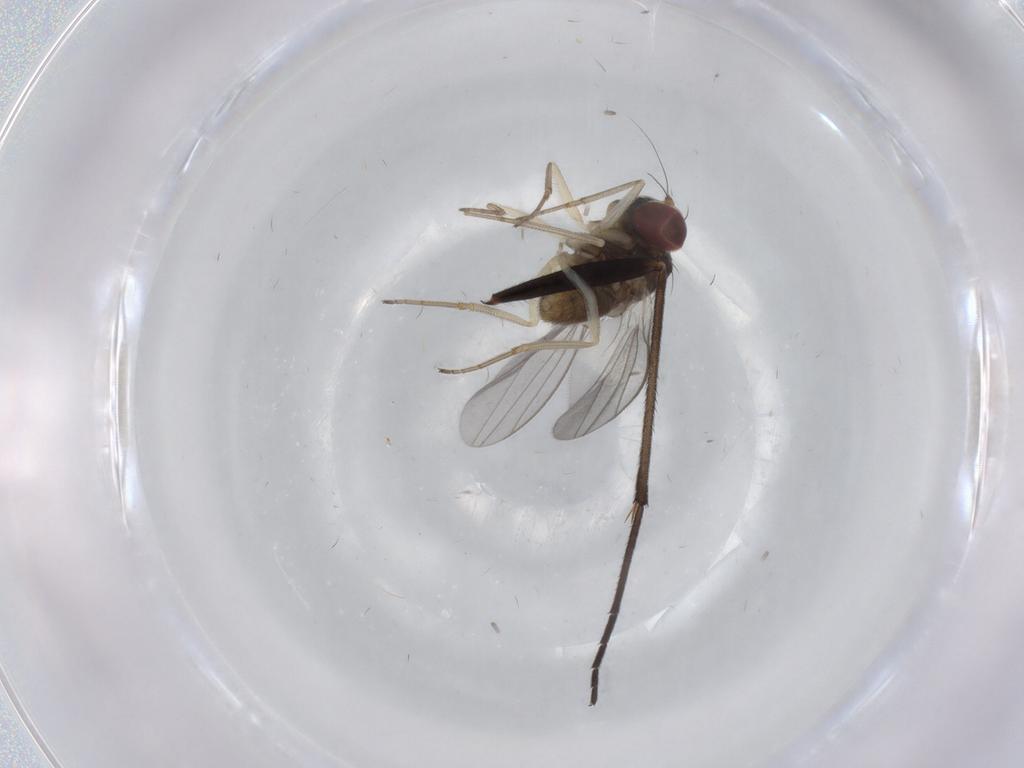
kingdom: Animalia
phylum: Arthropoda
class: Insecta
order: Diptera
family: Sciaridae
